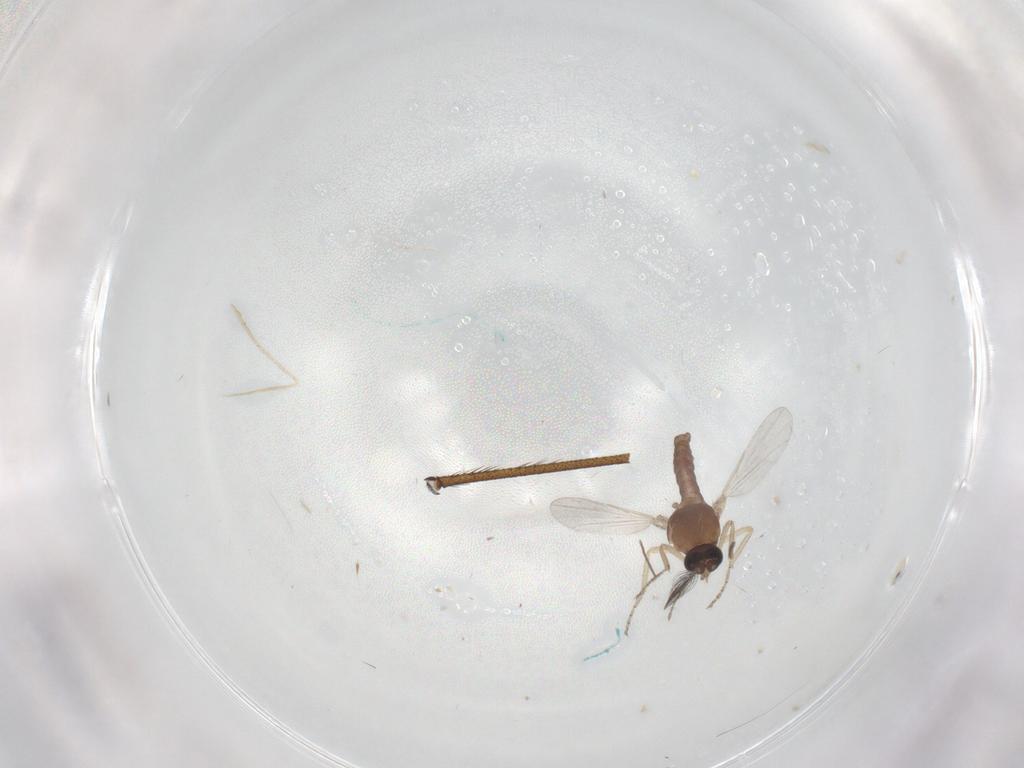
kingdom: Animalia
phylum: Arthropoda
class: Insecta
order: Diptera
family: Ceratopogonidae
